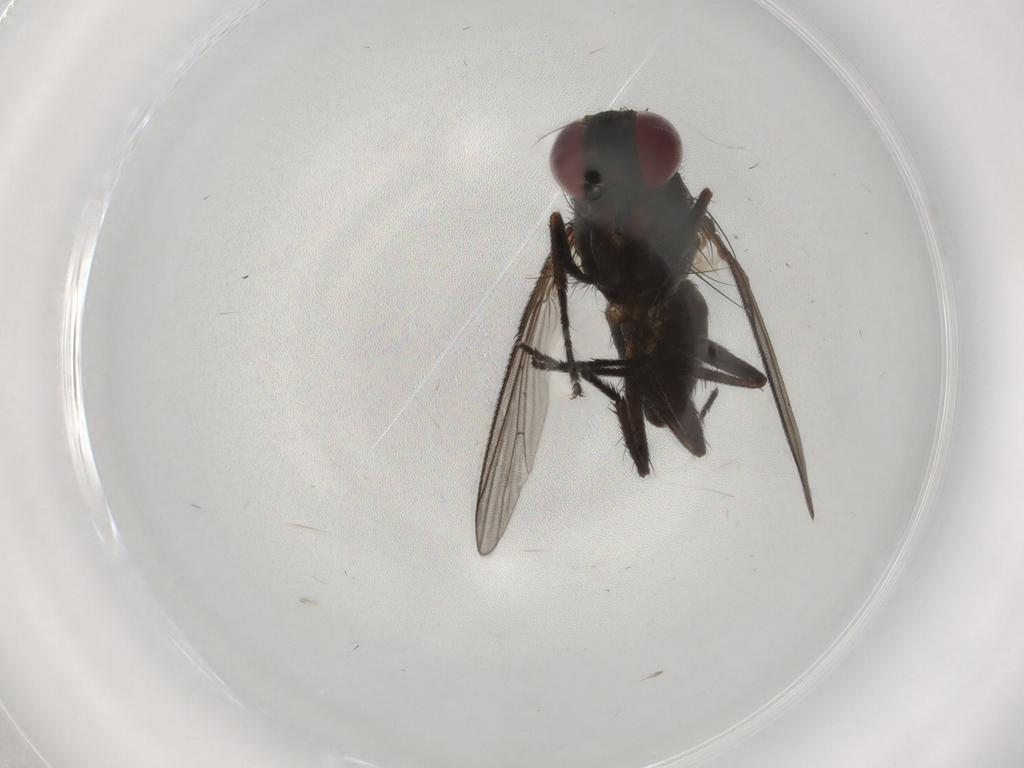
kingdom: Animalia
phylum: Arthropoda
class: Insecta
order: Diptera
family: Muscidae
